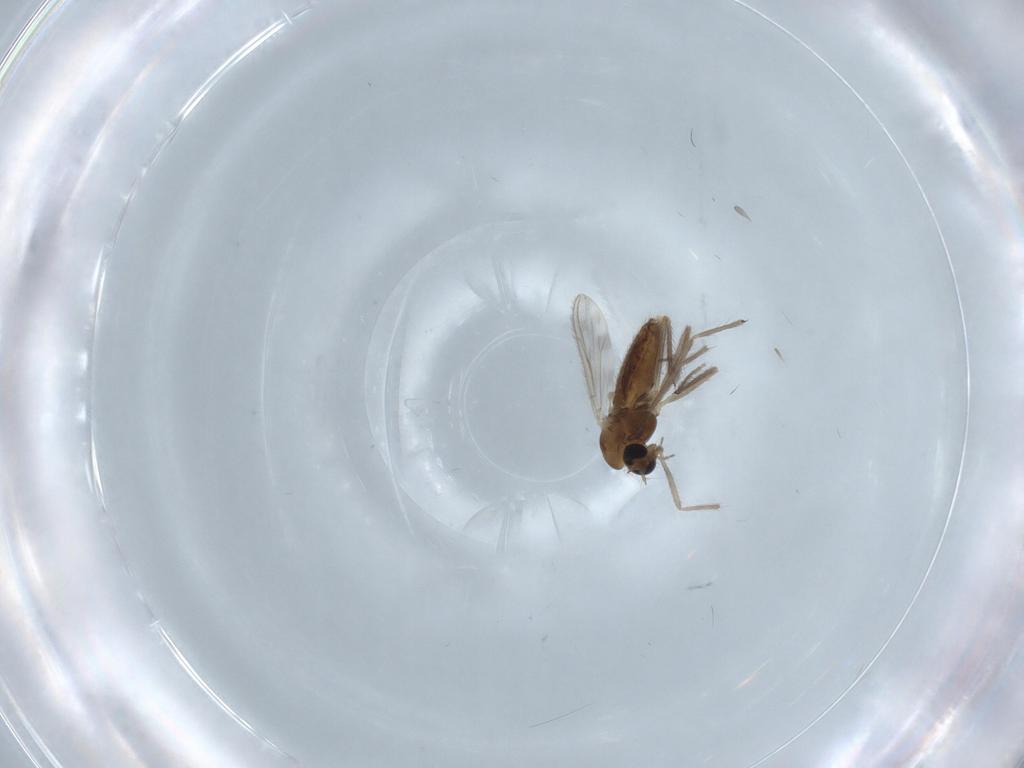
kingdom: Animalia
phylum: Arthropoda
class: Insecta
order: Diptera
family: Chironomidae
